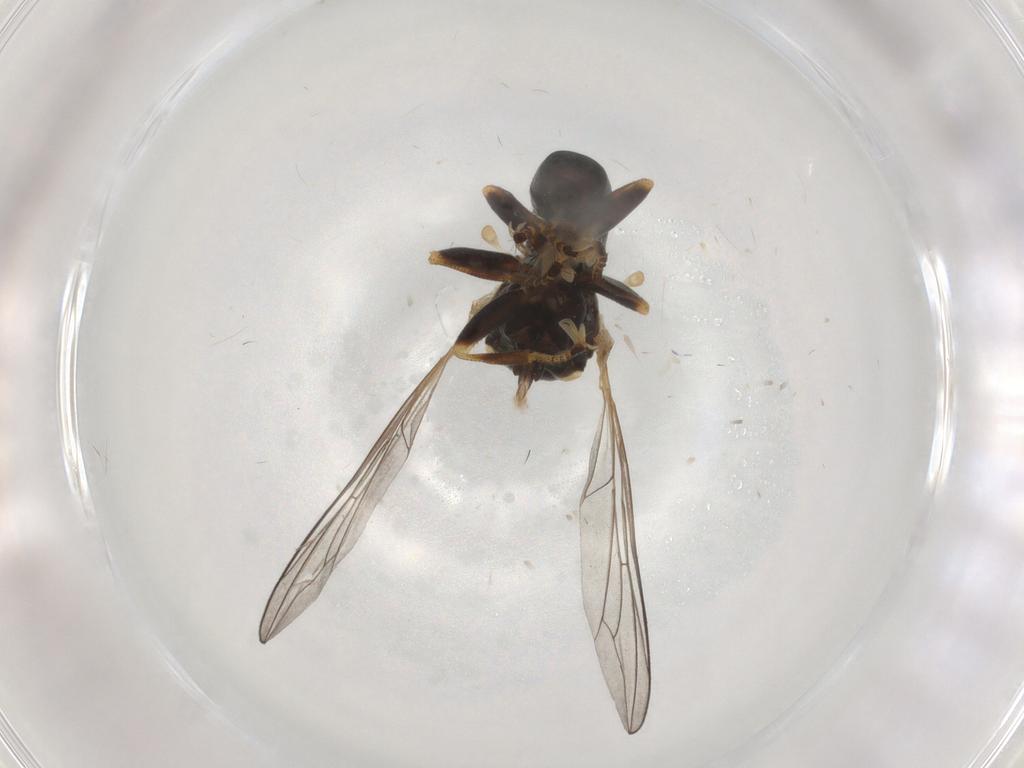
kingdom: Animalia
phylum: Arthropoda
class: Insecta
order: Diptera
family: Pipunculidae
